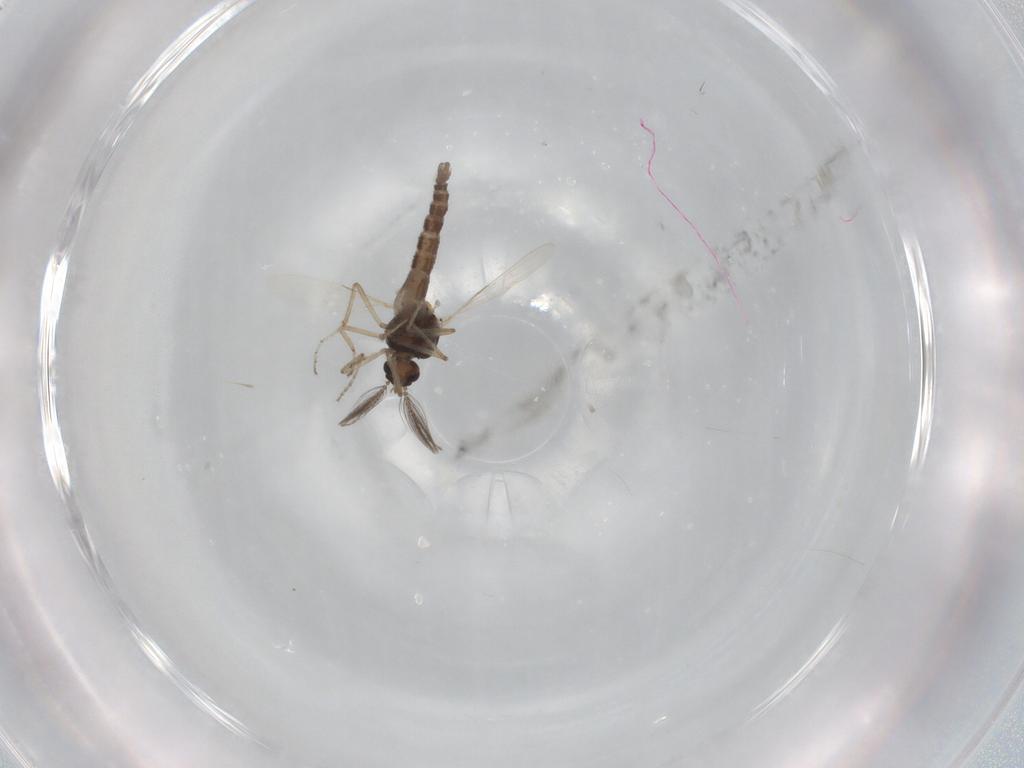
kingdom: Animalia
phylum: Arthropoda
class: Insecta
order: Diptera
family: Ceratopogonidae
